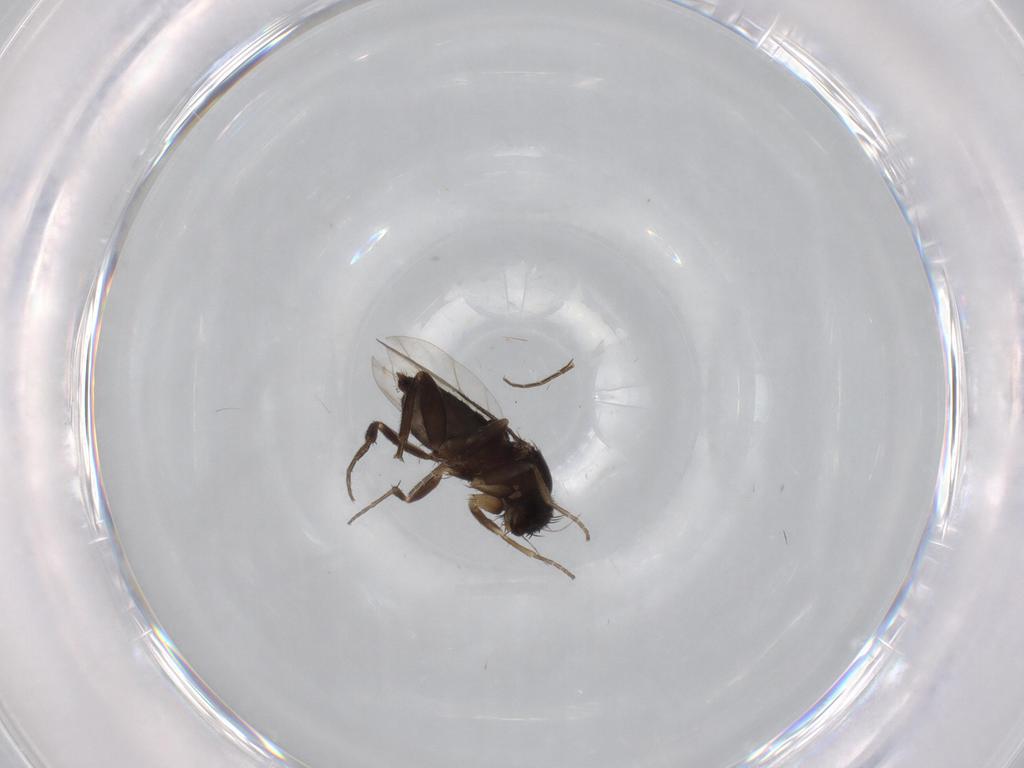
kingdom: Animalia
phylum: Arthropoda
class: Insecta
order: Diptera
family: Phoridae
